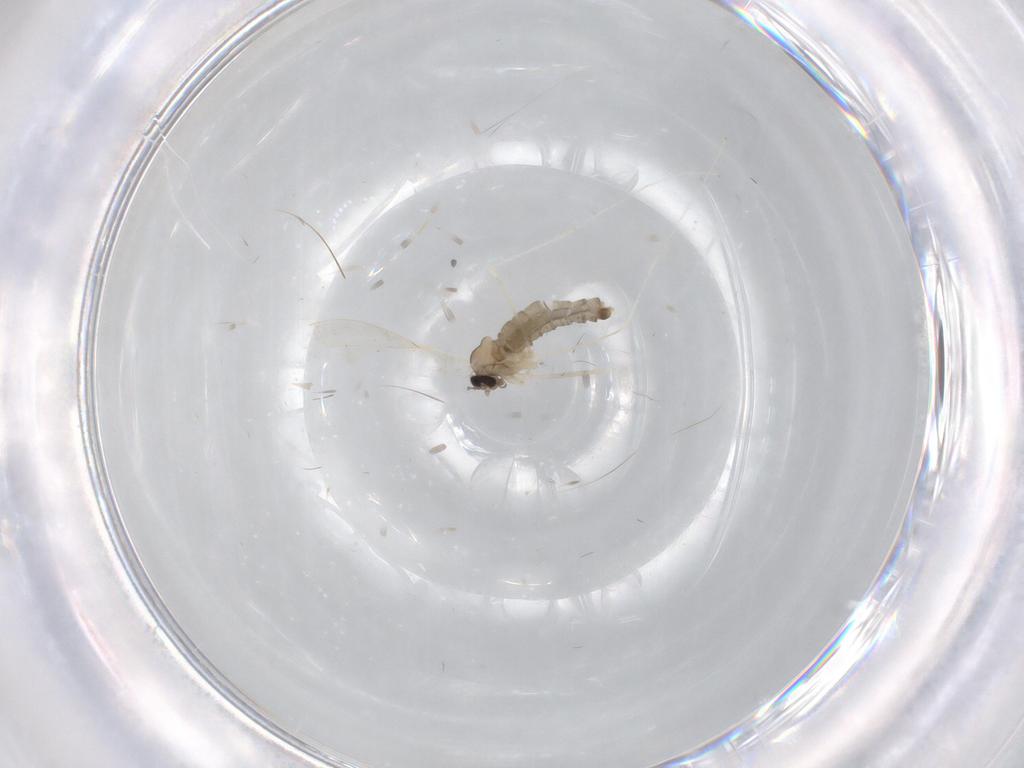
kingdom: Animalia
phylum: Arthropoda
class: Insecta
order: Diptera
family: Cecidomyiidae
